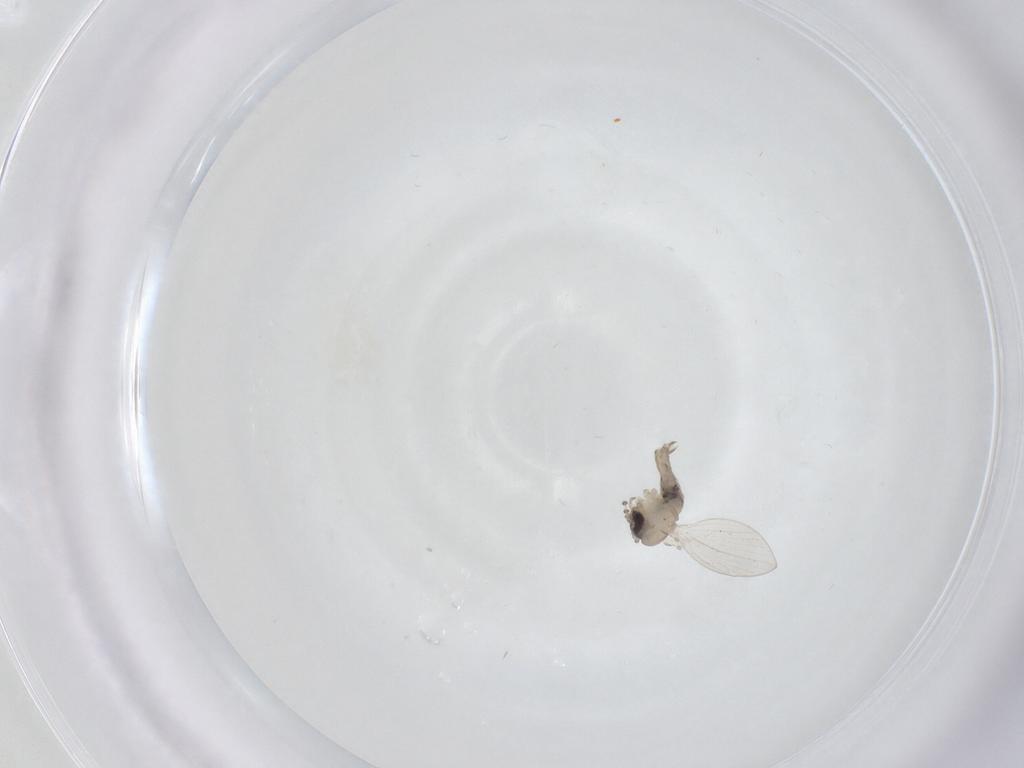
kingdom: Animalia
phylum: Arthropoda
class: Insecta
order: Diptera
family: Psychodidae
